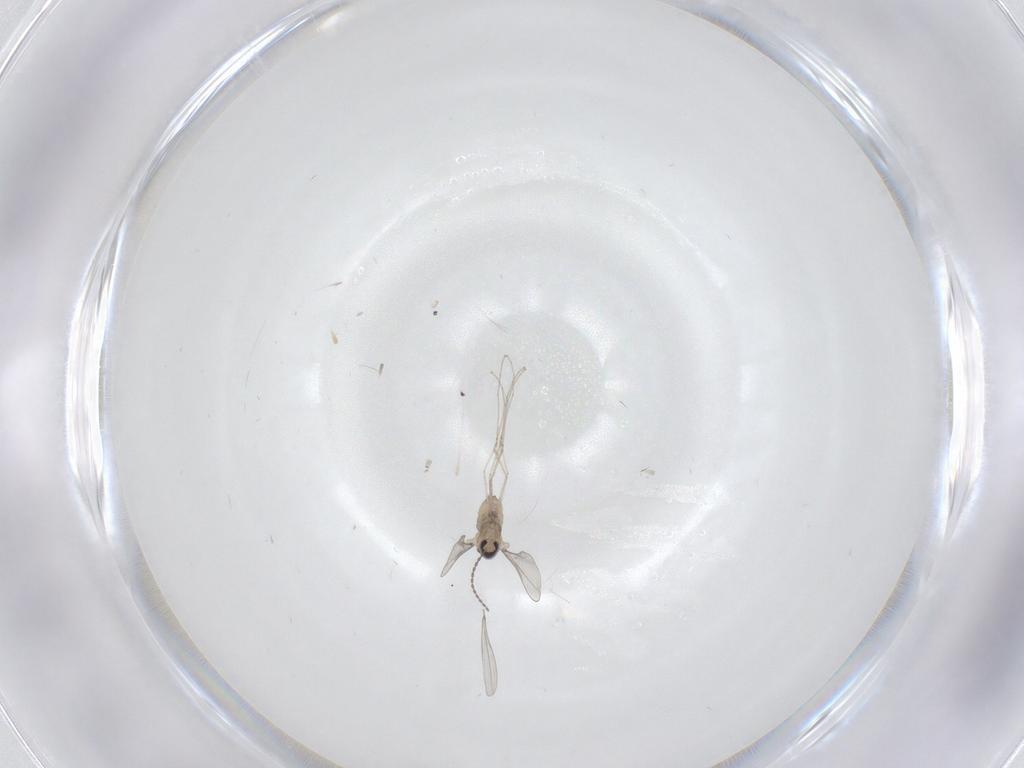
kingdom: Animalia
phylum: Arthropoda
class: Insecta
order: Diptera
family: Cecidomyiidae
